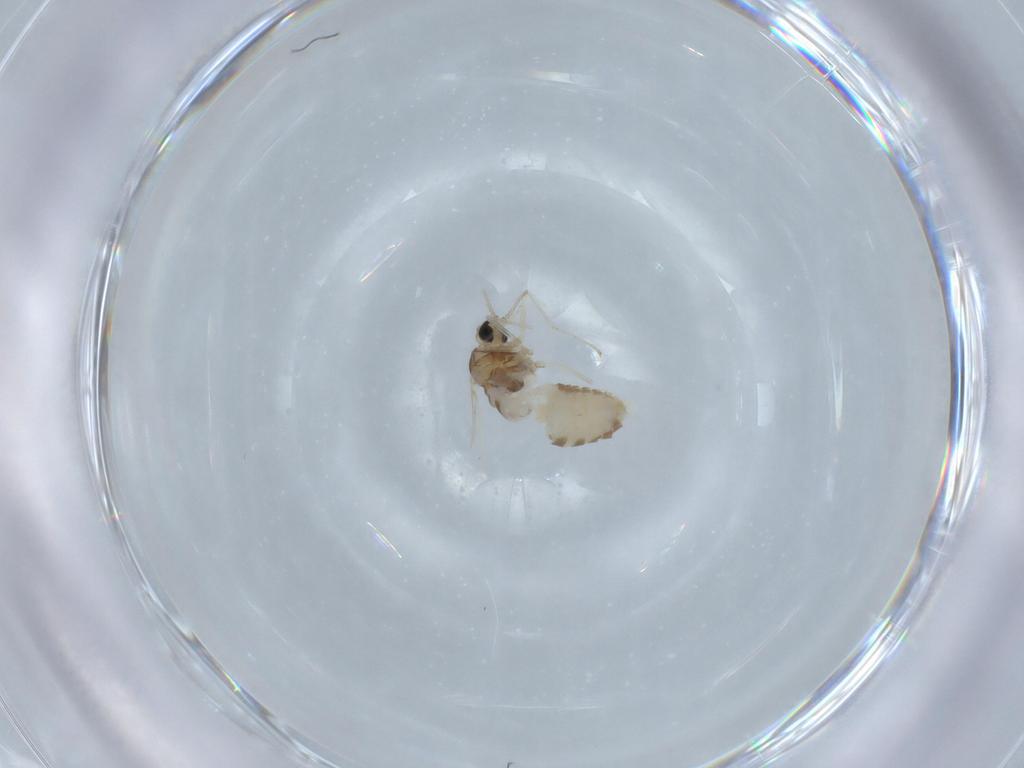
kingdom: Animalia
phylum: Arthropoda
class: Insecta
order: Diptera
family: Cecidomyiidae
